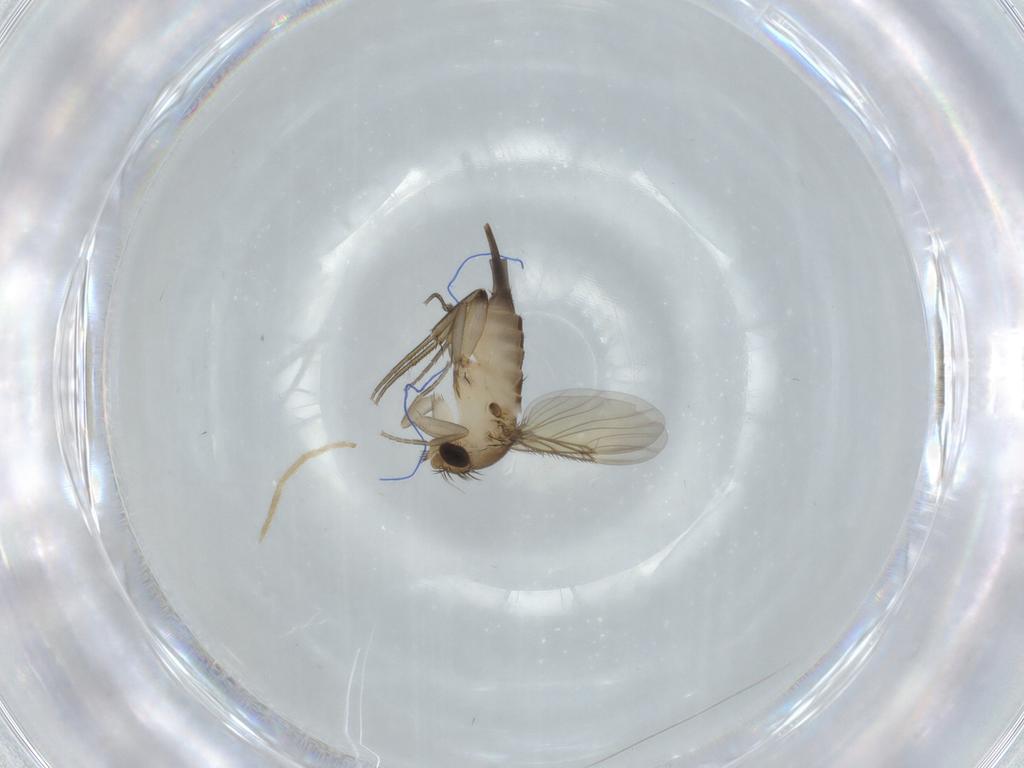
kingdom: Animalia
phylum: Arthropoda
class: Insecta
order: Diptera
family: Phoridae
